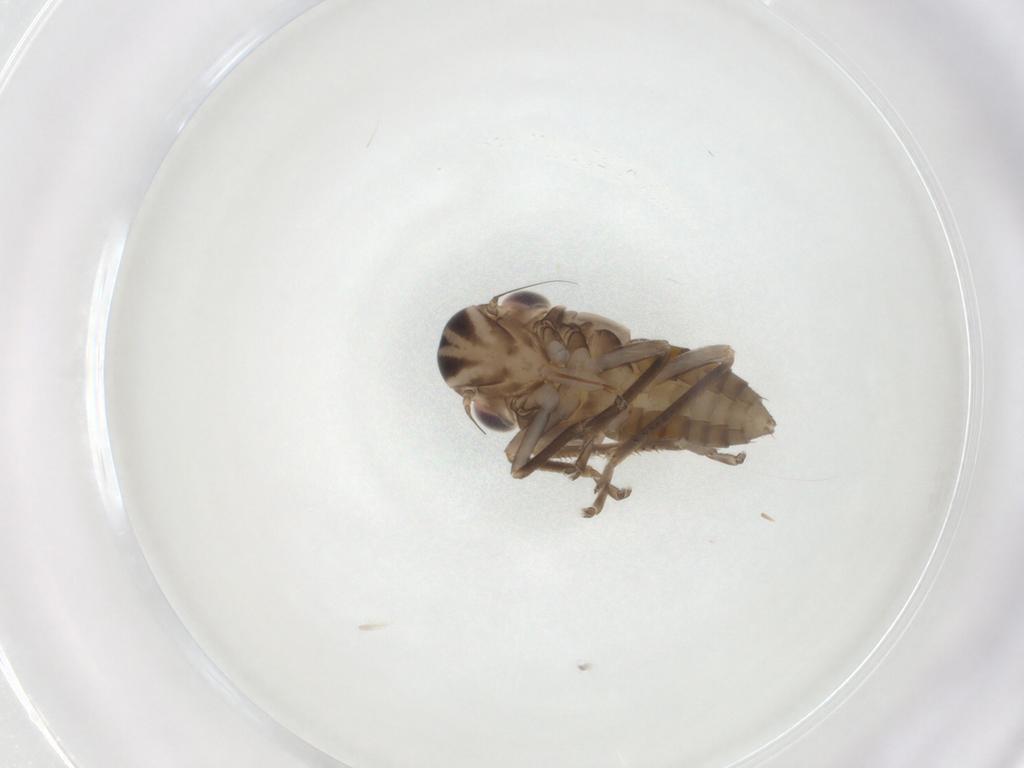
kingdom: Animalia
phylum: Arthropoda
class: Insecta
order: Hemiptera
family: Cicadellidae
